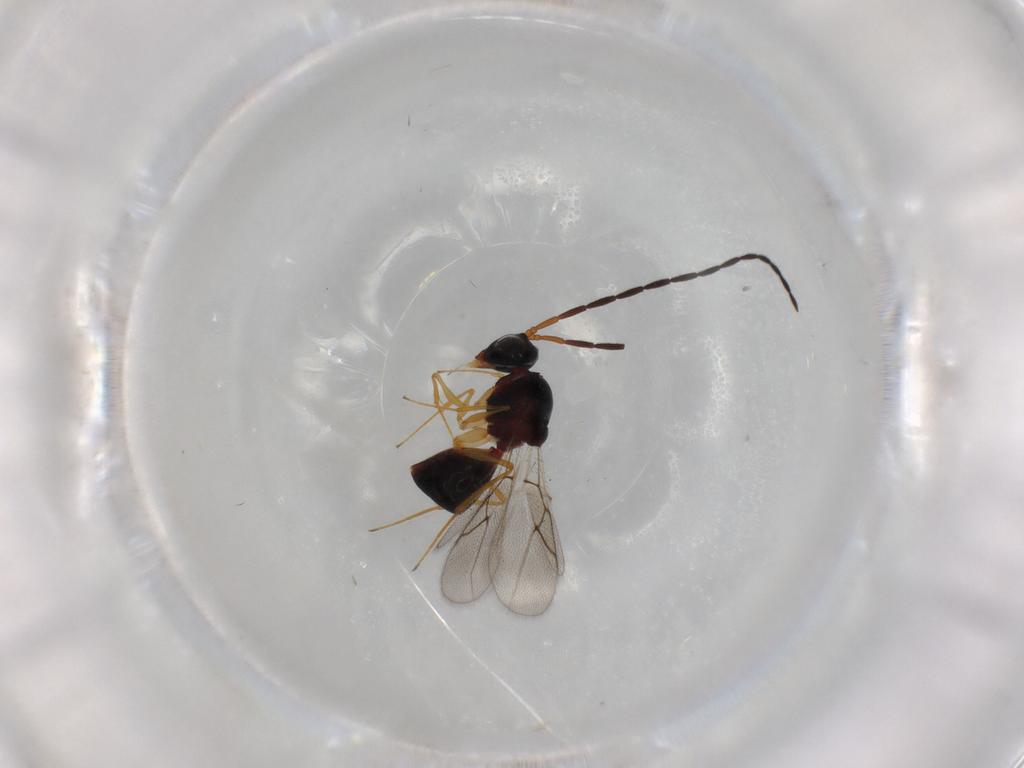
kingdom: Animalia
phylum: Arthropoda
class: Insecta
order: Hymenoptera
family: Figitidae
